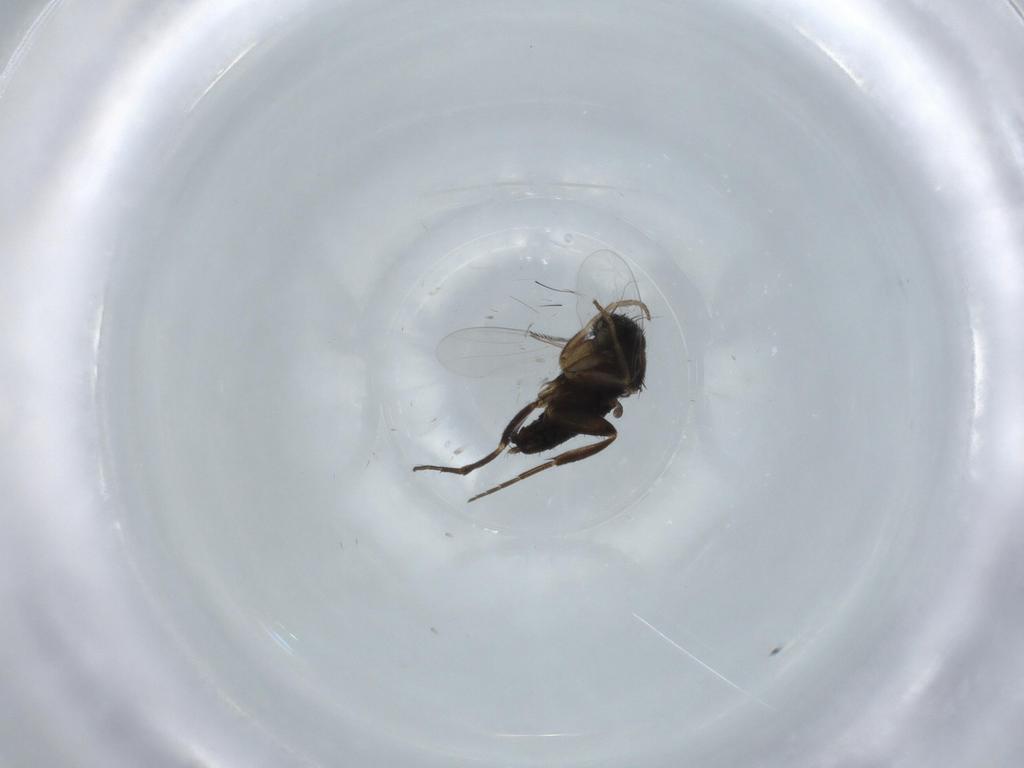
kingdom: Animalia
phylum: Arthropoda
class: Insecta
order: Diptera
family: Phoridae
